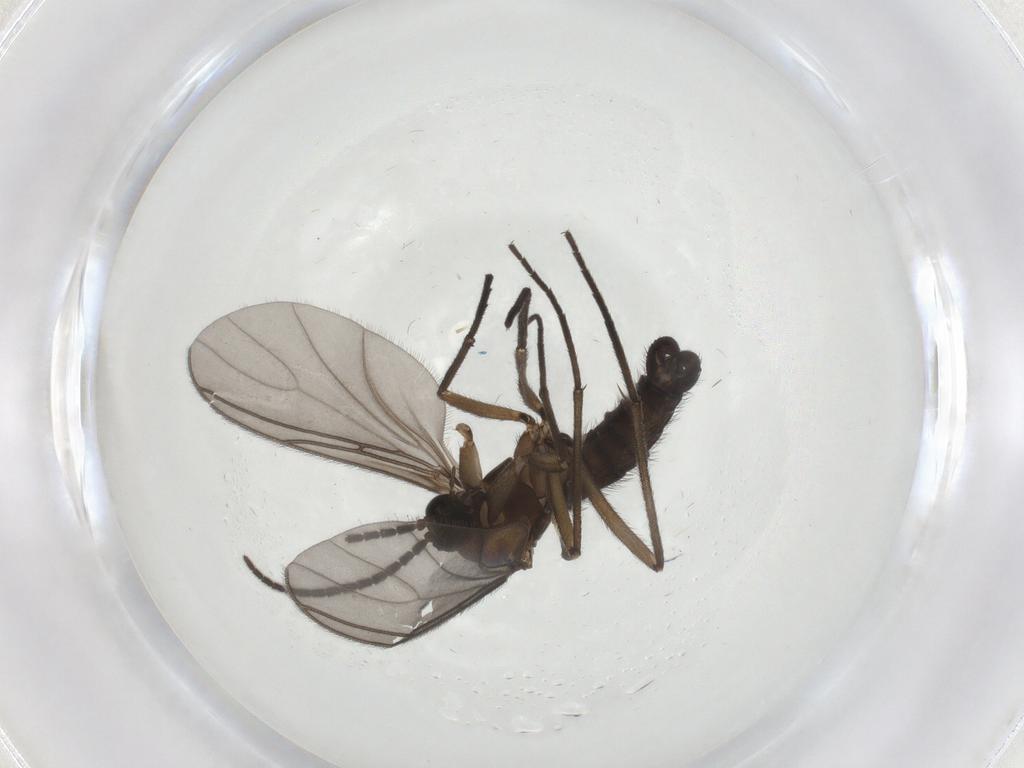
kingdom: Animalia
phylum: Arthropoda
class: Insecta
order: Diptera
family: Sciaridae
